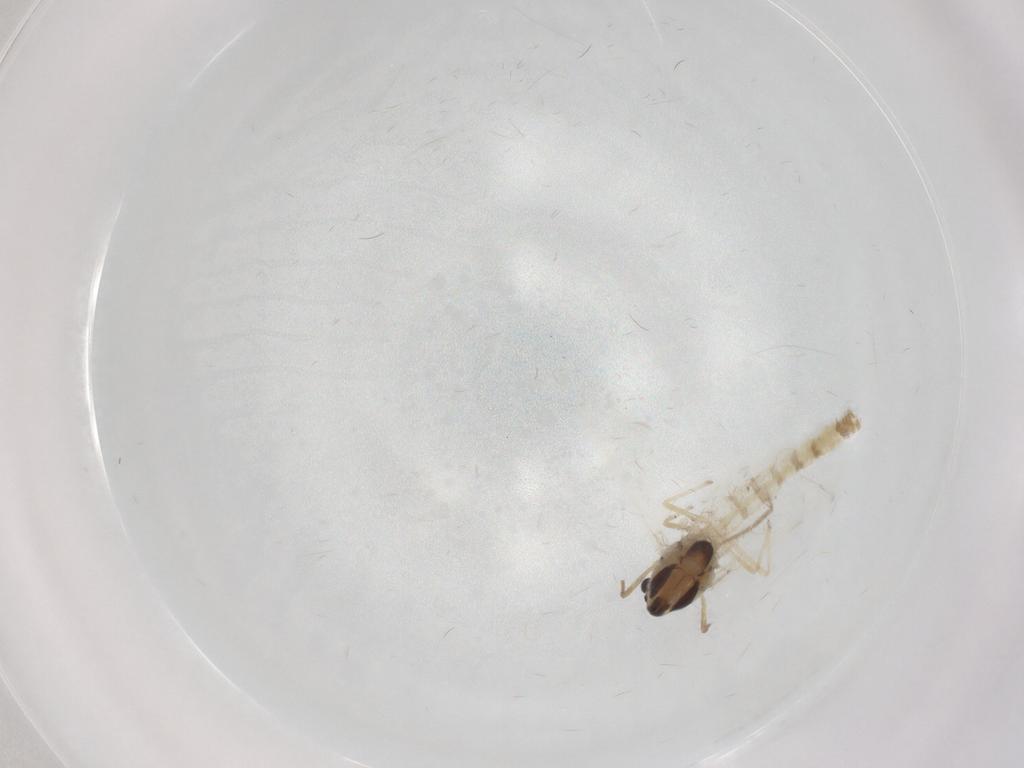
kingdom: Animalia
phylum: Arthropoda
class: Insecta
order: Diptera
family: Chironomidae
